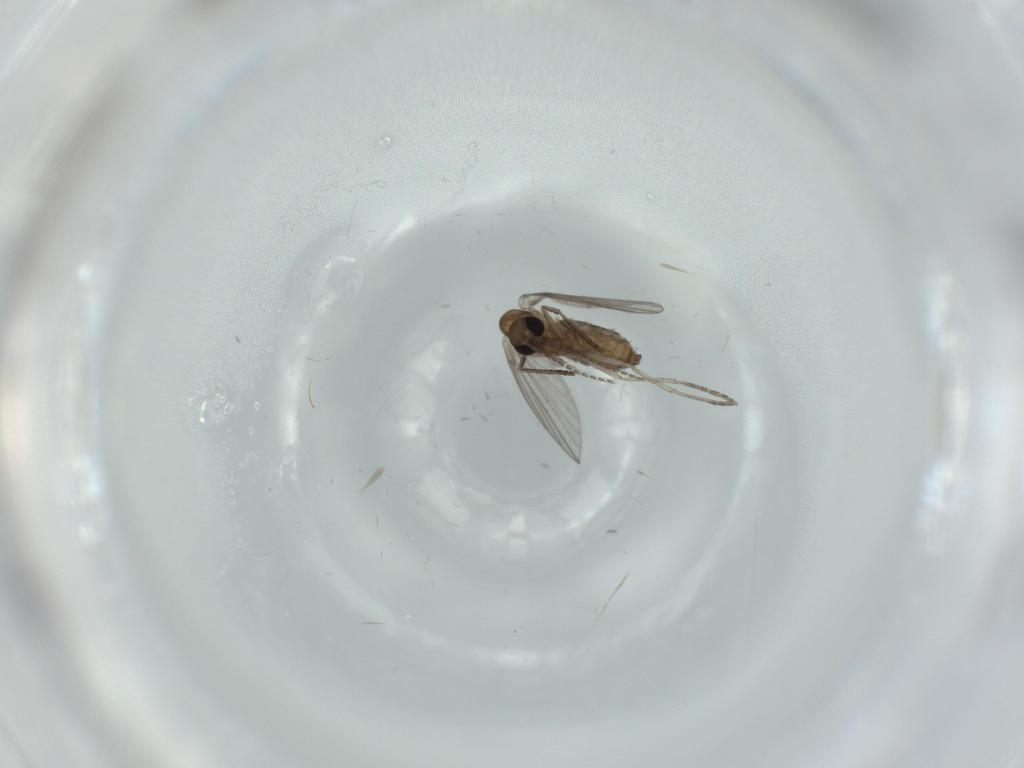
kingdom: Animalia
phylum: Arthropoda
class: Insecta
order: Diptera
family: Psychodidae
